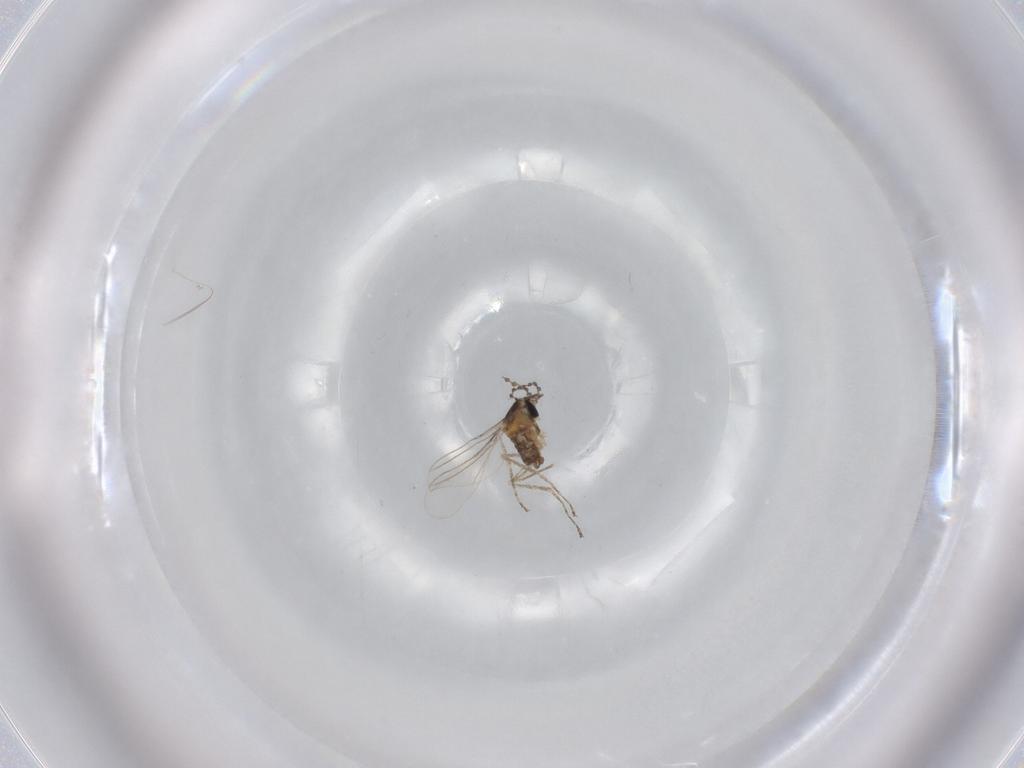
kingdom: Animalia
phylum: Arthropoda
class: Insecta
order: Diptera
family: Cecidomyiidae
